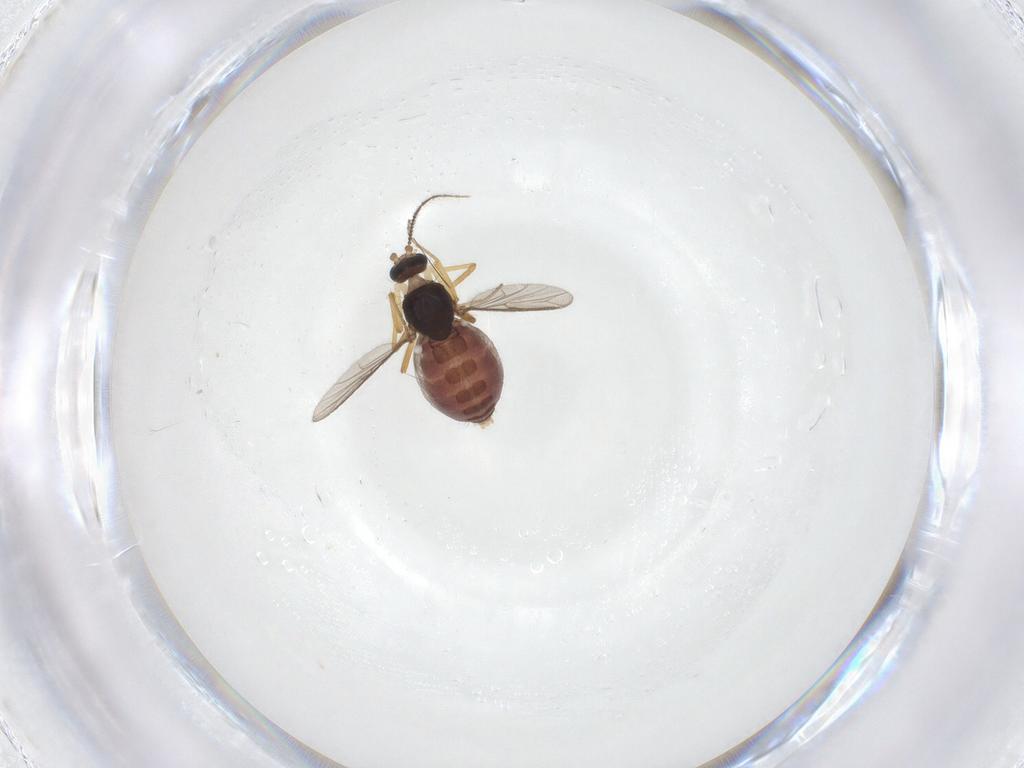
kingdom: Animalia
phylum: Arthropoda
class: Insecta
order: Diptera
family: Ceratopogonidae
